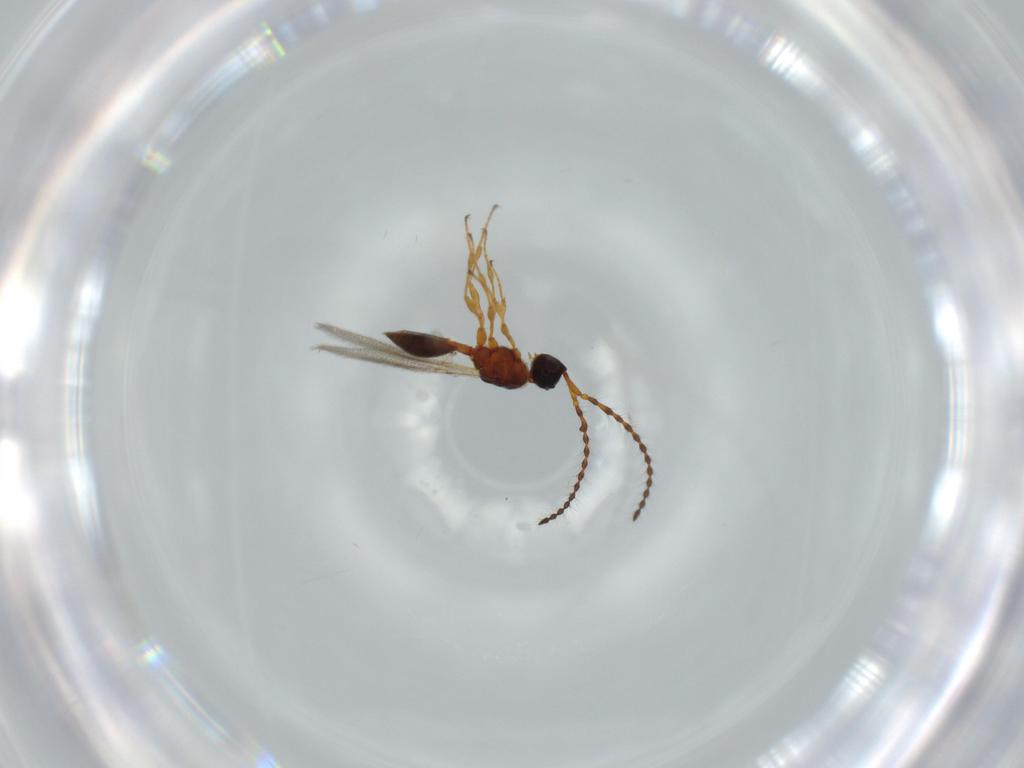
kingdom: Animalia
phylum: Arthropoda
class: Insecta
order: Hymenoptera
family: Diapriidae
